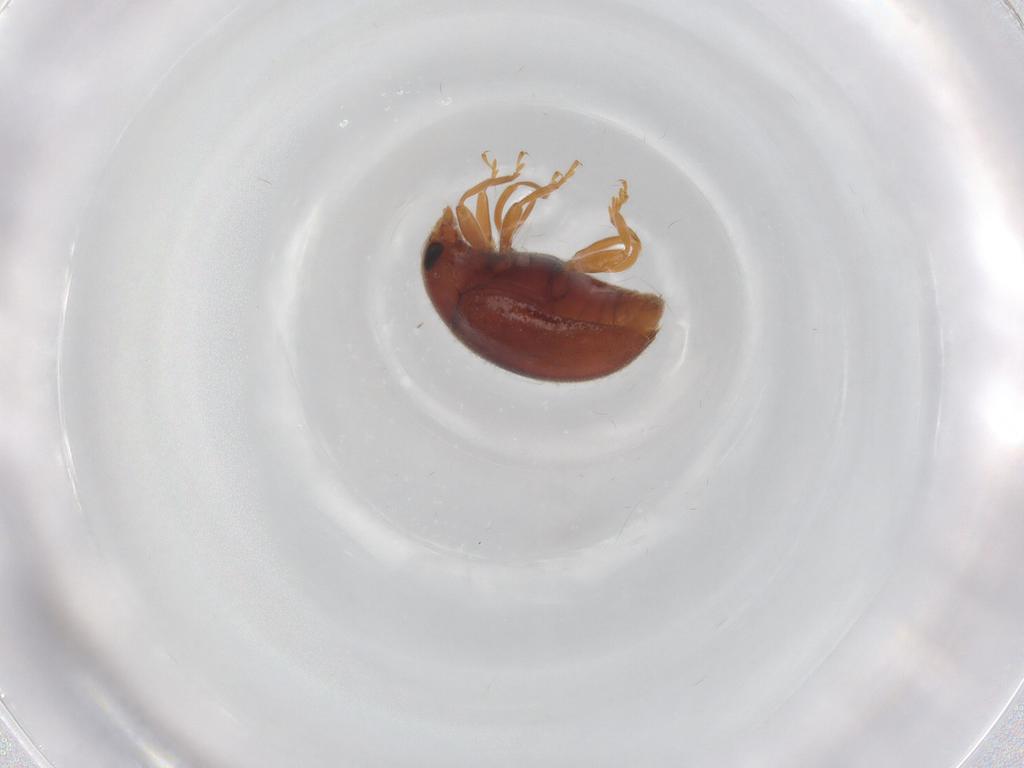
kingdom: Animalia
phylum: Arthropoda
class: Insecta
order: Coleoptera
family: Coccinellidae
